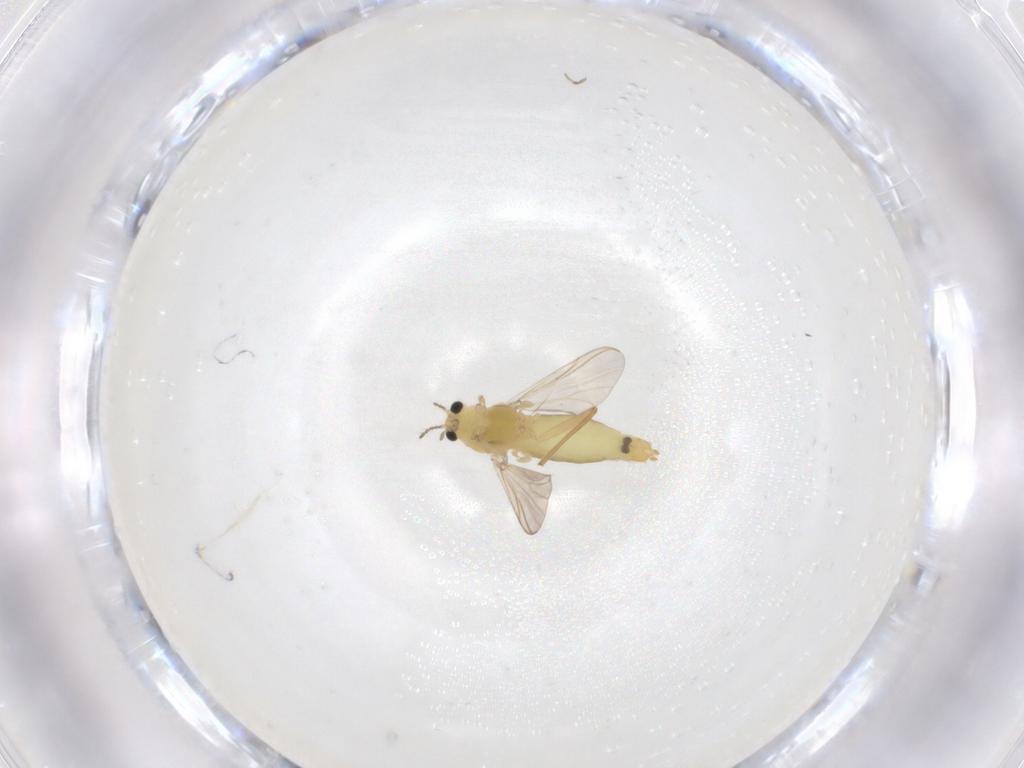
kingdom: Animalia
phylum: Arthropoda
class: Insecta
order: Diptera
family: Chironomidae
